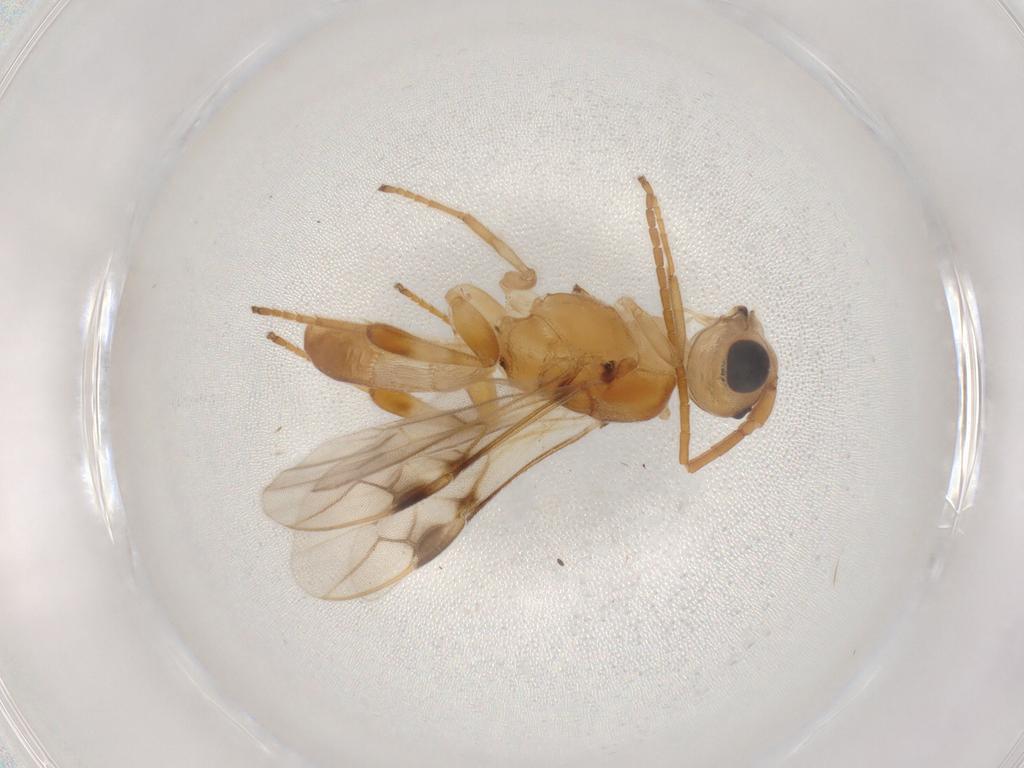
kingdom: Animalia
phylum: Arthropoda
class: Insecta
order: Hymenoptera
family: Braconidae
